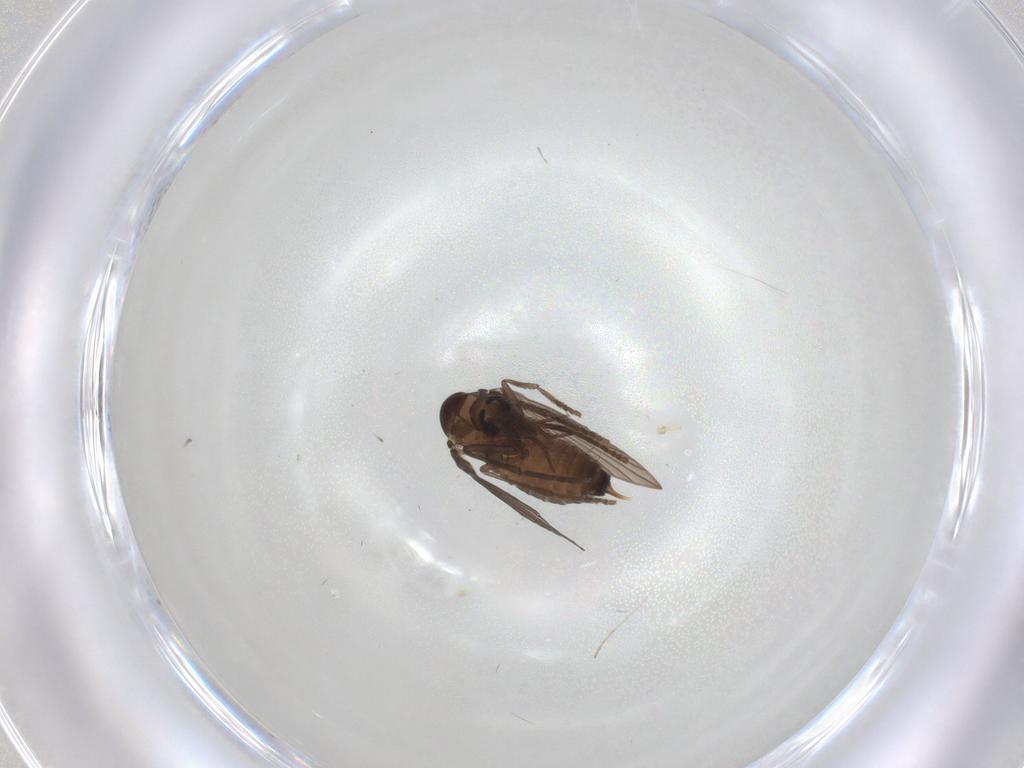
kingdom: Animalia
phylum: Arthropoda
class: Insecta
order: Diptera
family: Psychodidae
